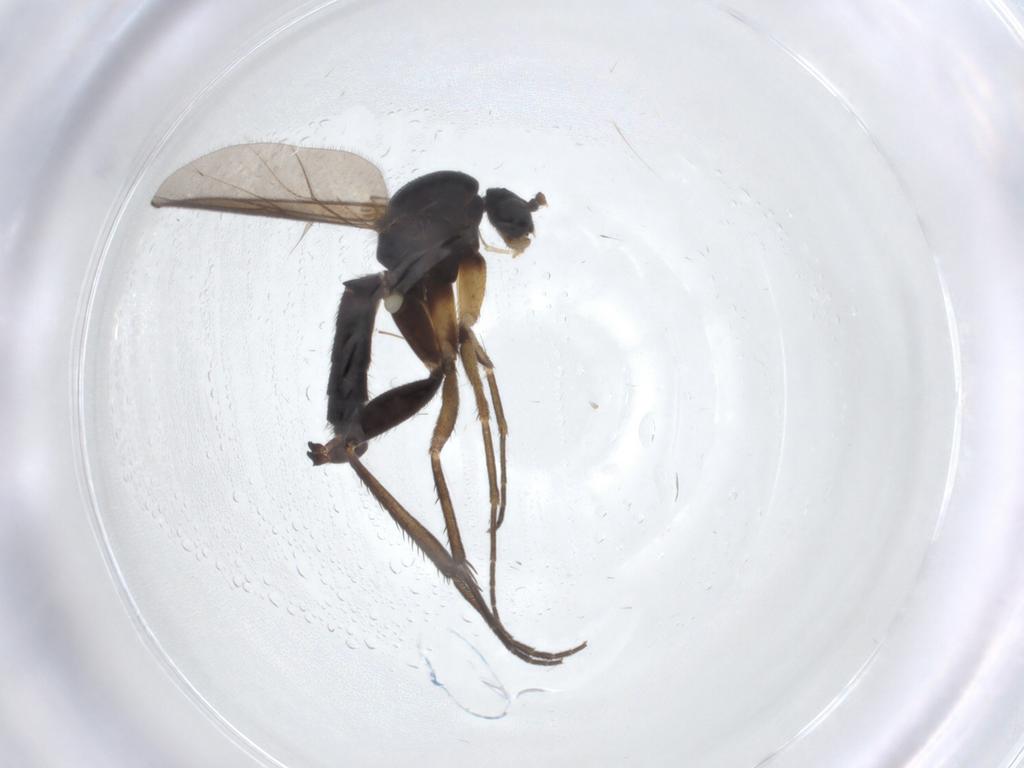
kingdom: Animalia
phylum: Arthropoda
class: Insecta
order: Diptera
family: Mycetophilidae
